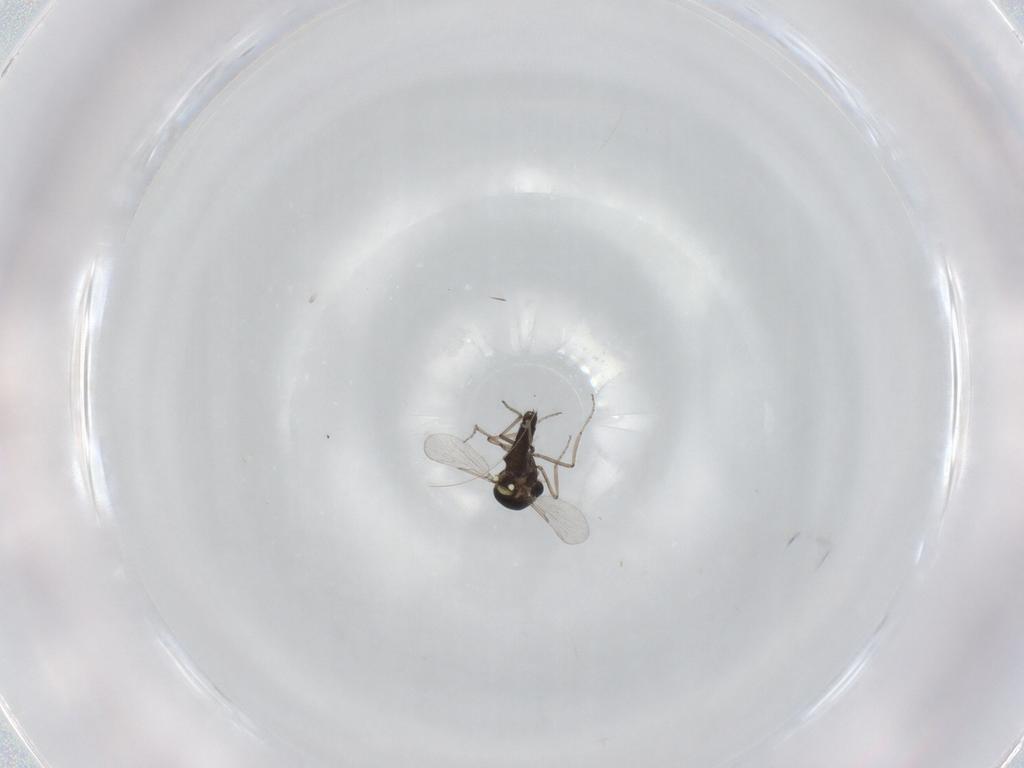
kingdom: Animalia
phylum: Arthropoda
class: Insecta
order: Diptera
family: Ceratopogonidae
